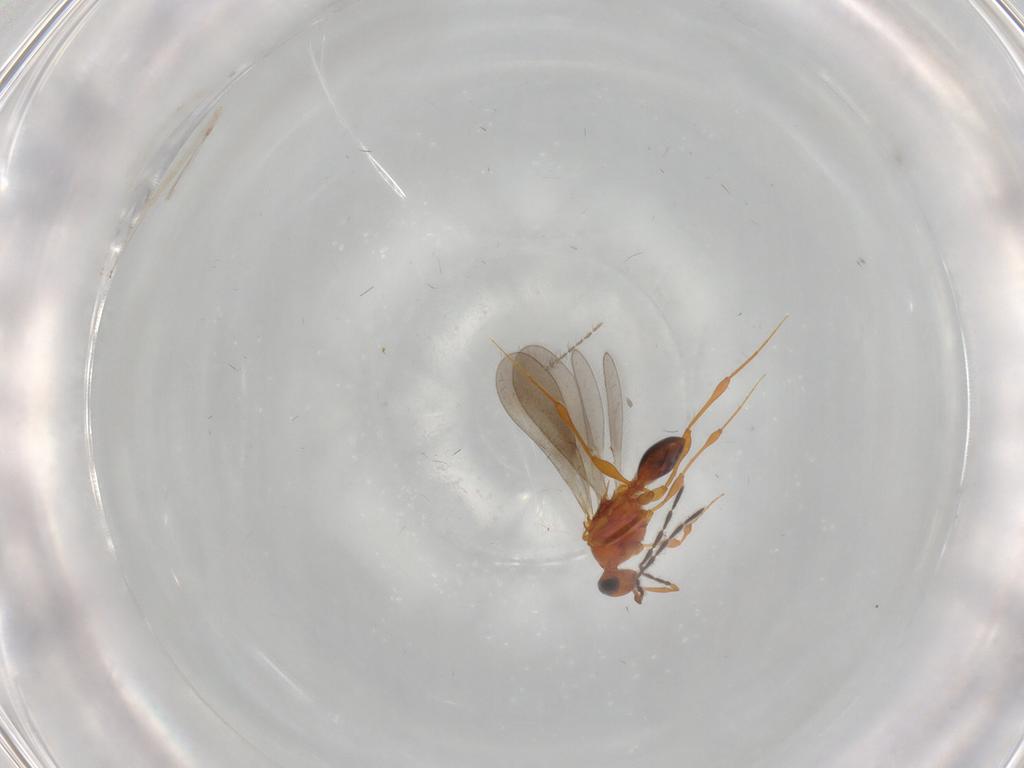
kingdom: Animalia
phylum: Arthropoda
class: Insecta
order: Hymenoptera
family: Platygastridae
